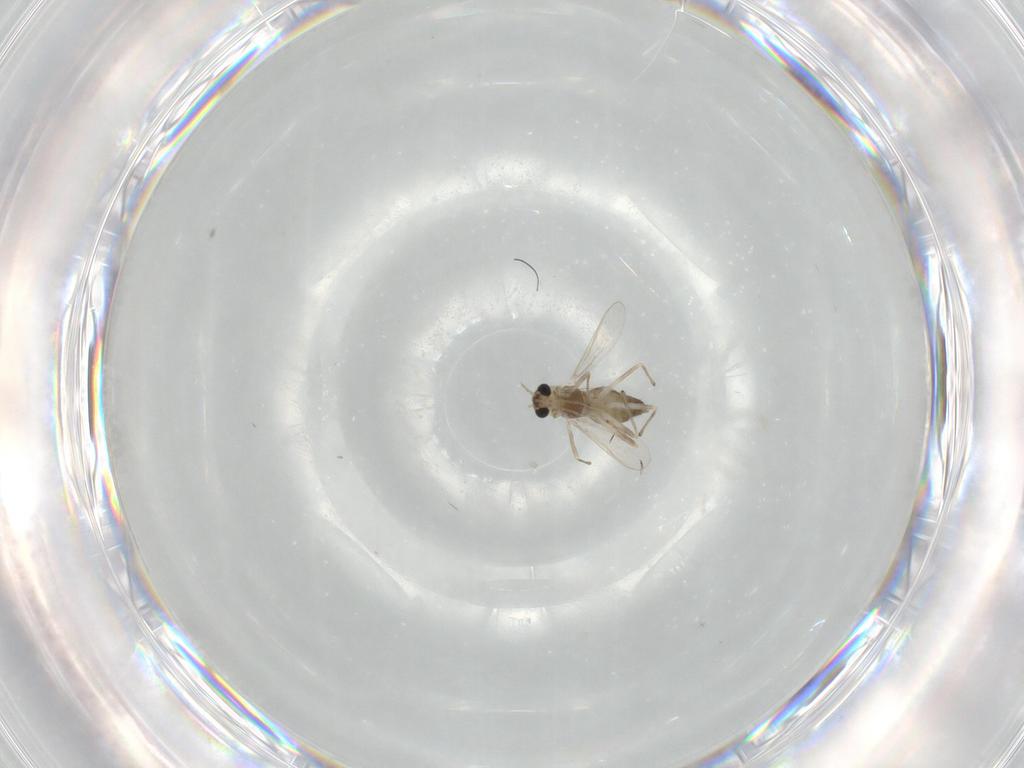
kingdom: Animalia
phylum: Arthropoda
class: Insecta
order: Diptera
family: Chironomidae
